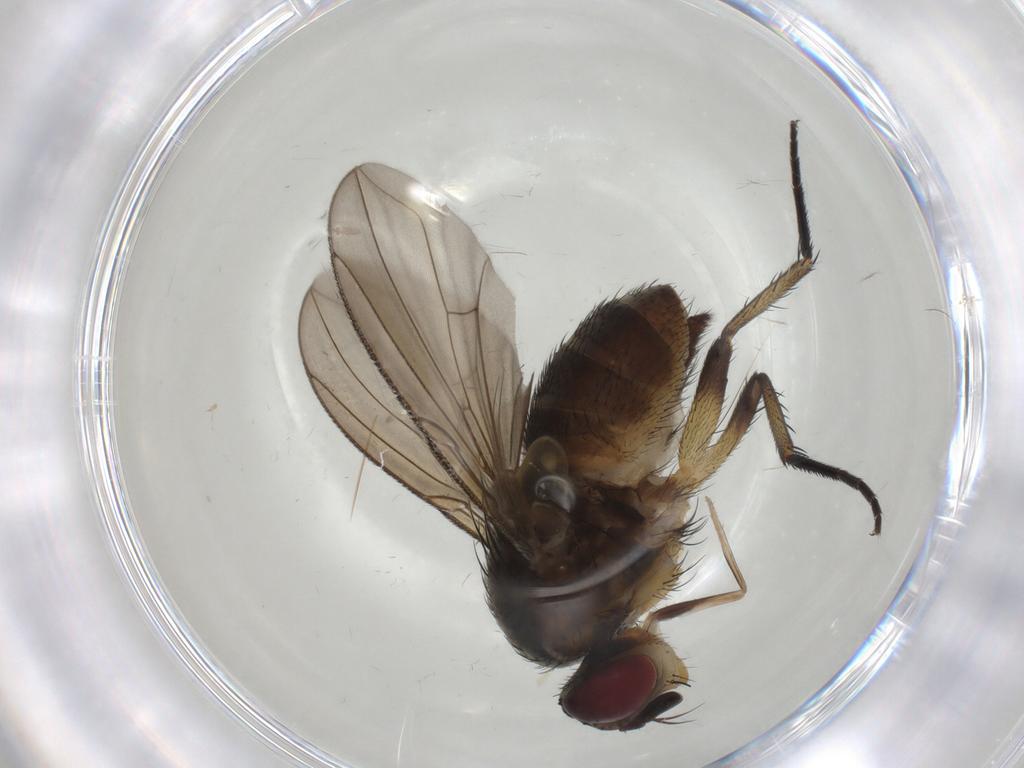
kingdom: Animalia
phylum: Arthropoda
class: Insecta
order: Diptera
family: Tachinidae
